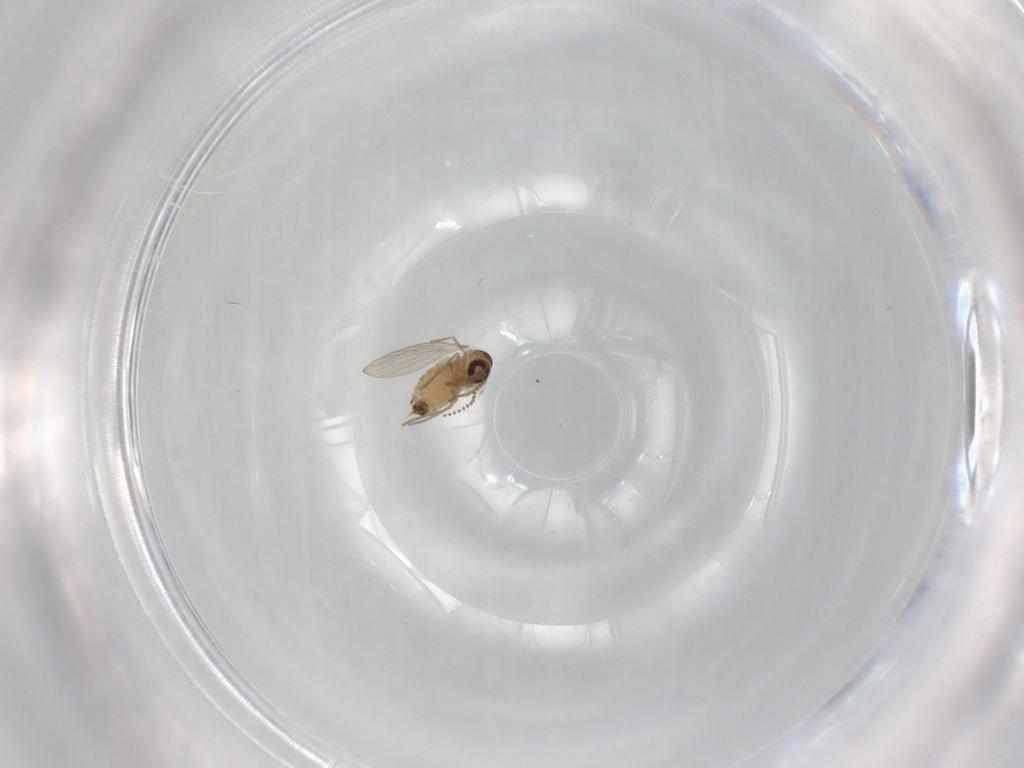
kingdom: Animalia
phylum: Arthropoda
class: Insecta
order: Diptera
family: Psychodidae
